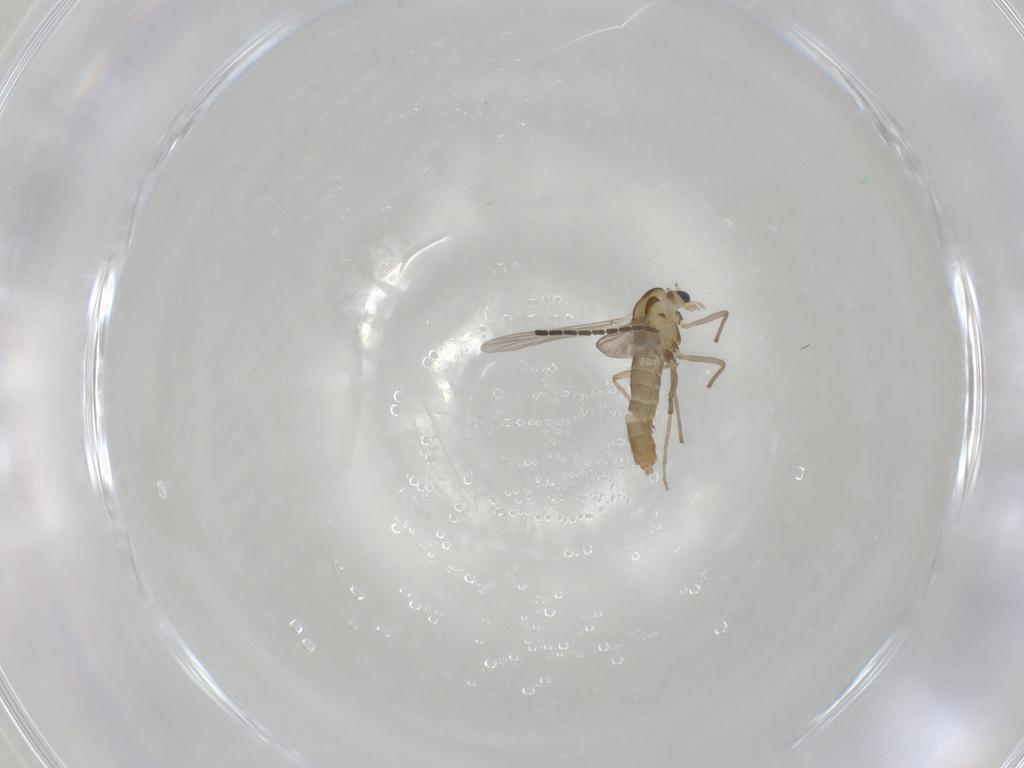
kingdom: Animalia
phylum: Arthropoda
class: Insecta
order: Diptera
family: Chironomidae
